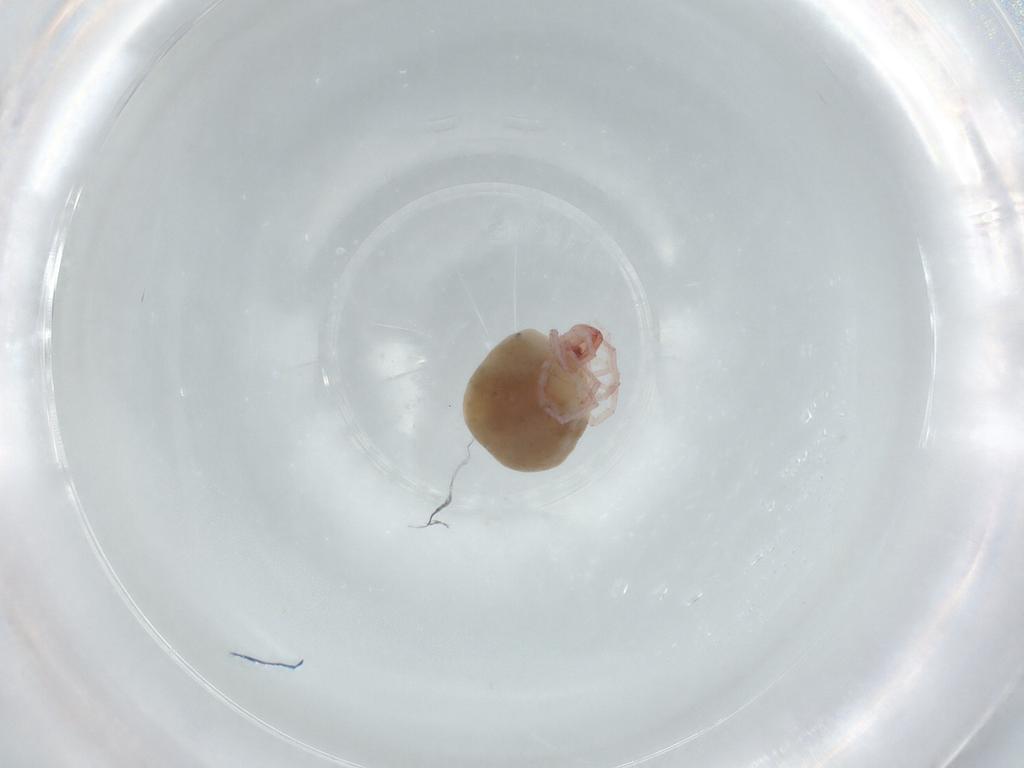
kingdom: Animalia
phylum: Arthropoda
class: Arachnida
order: Trombidiformes
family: Pionidae
